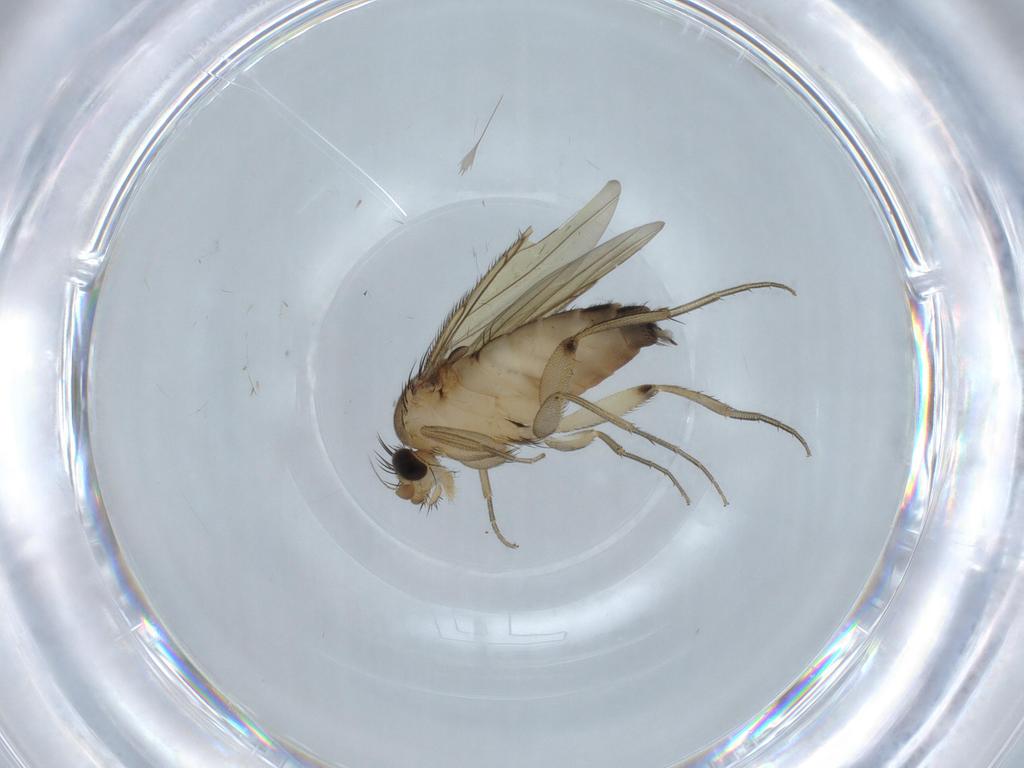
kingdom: Animalia
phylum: Arthropoda
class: Insecta
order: Diptera
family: Phoridae
